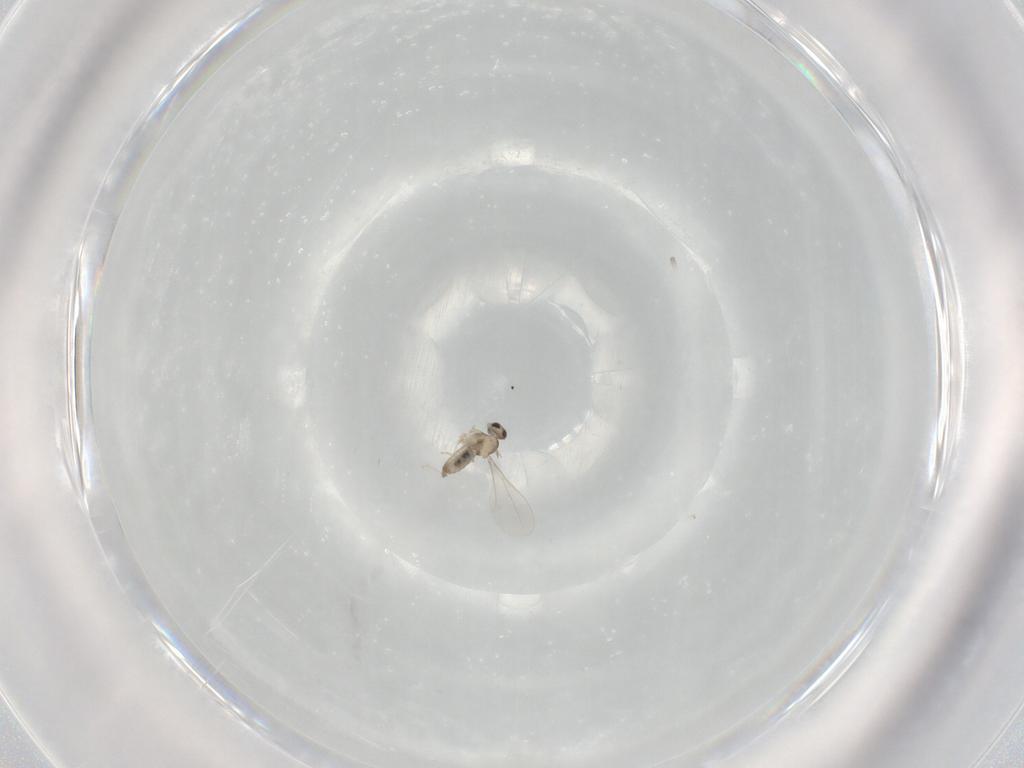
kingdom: Animalia
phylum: Arthropoda
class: Insecta
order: Diptera
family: Cecidomyiidae
